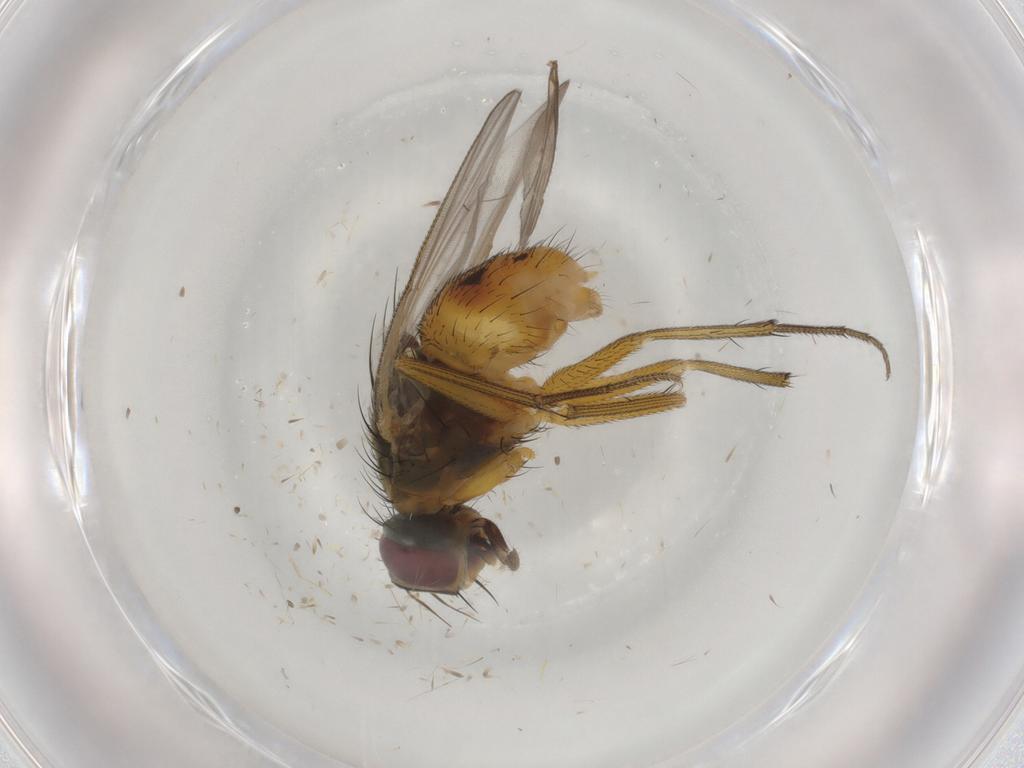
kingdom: Animalia
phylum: Arthropoda
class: Insecta
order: Diptera
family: Muscidae
